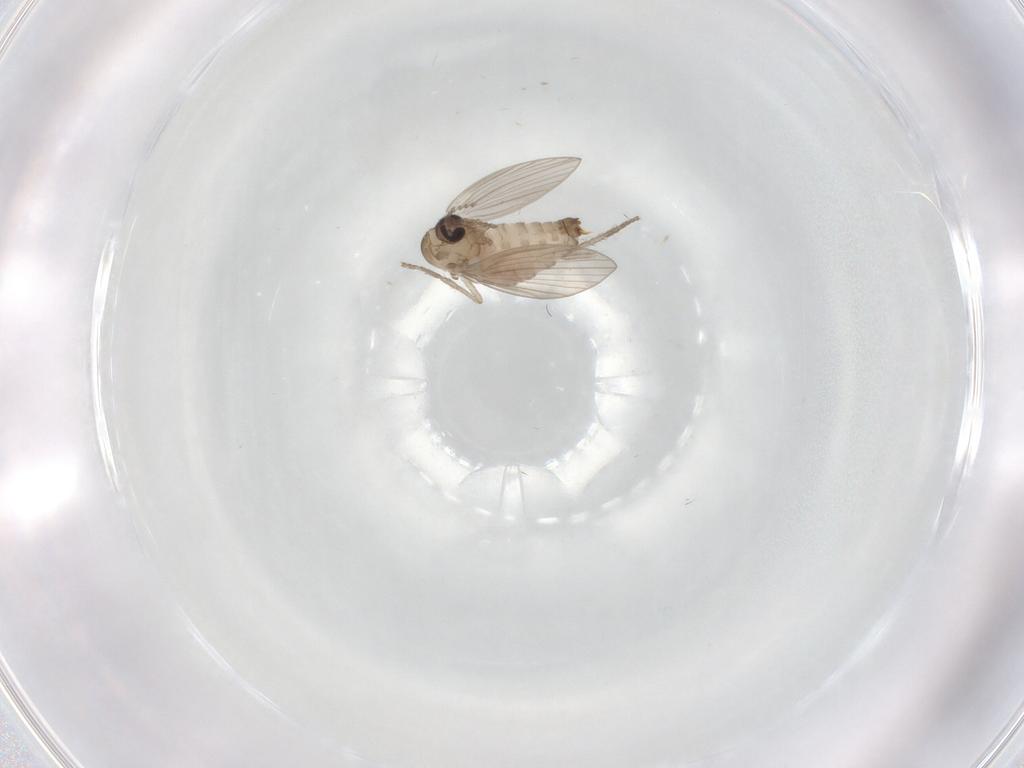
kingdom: Animalia
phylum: Arthropoda
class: Insecta
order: Diptera
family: Psychodidae
